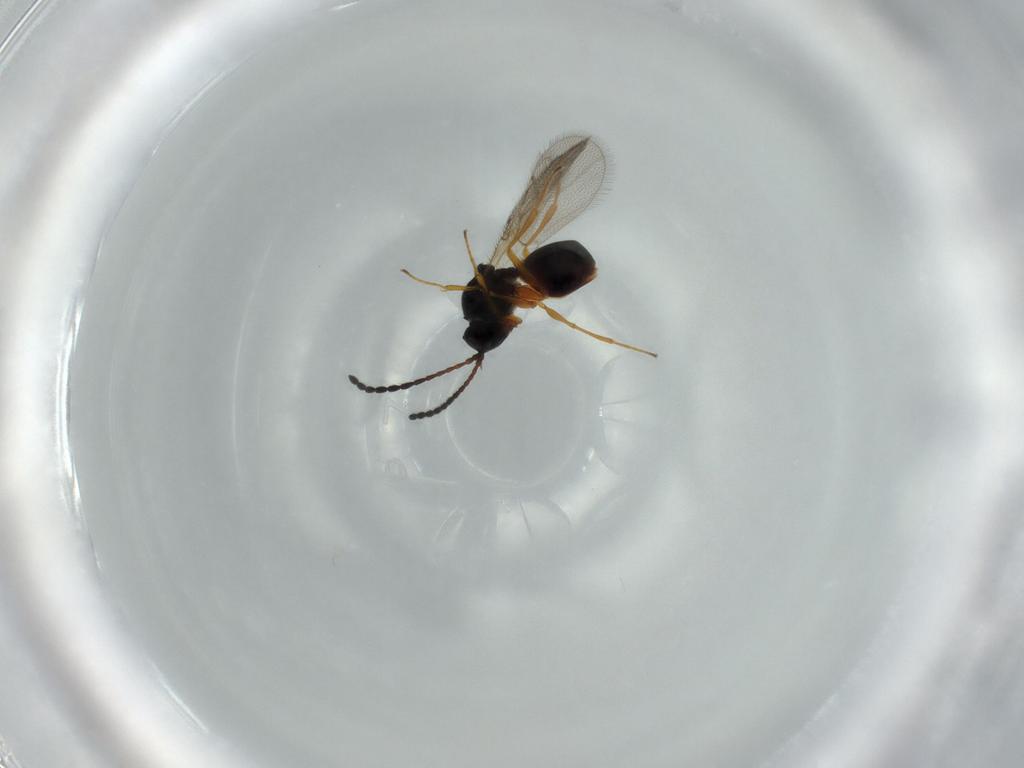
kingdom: Animalia
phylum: Arthropoda
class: Insecta
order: Hymenoptera
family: Figitidae
